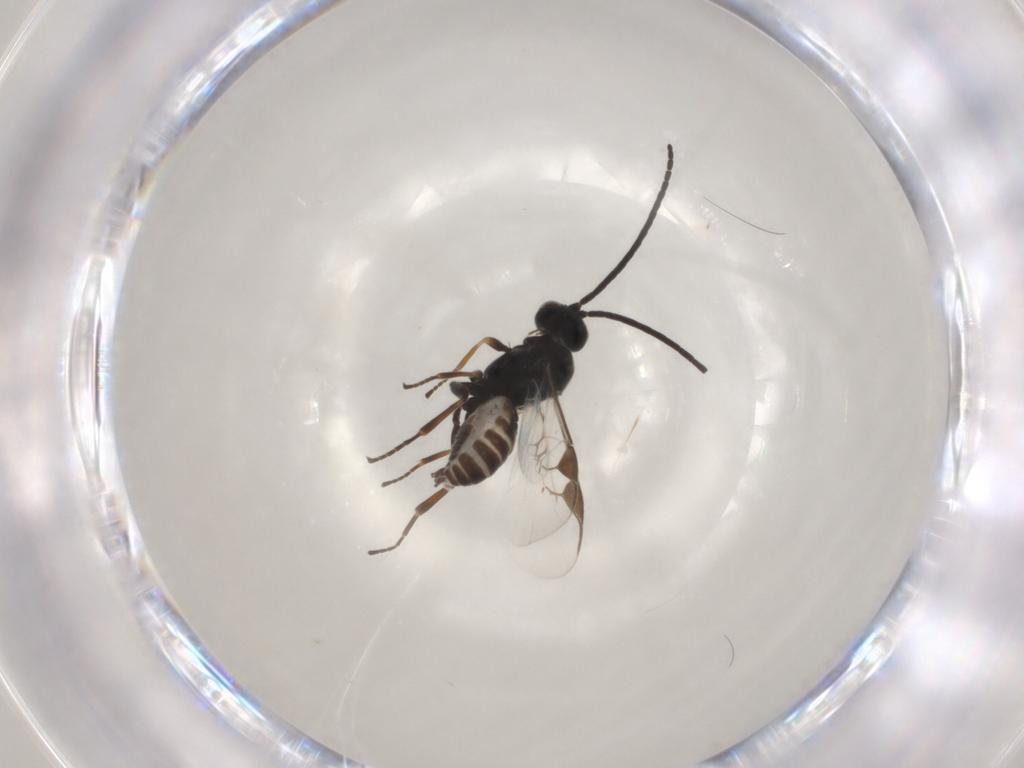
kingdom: Animalia
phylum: Arthropoda
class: Insecta
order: Hymenoptera
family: Braconidae
